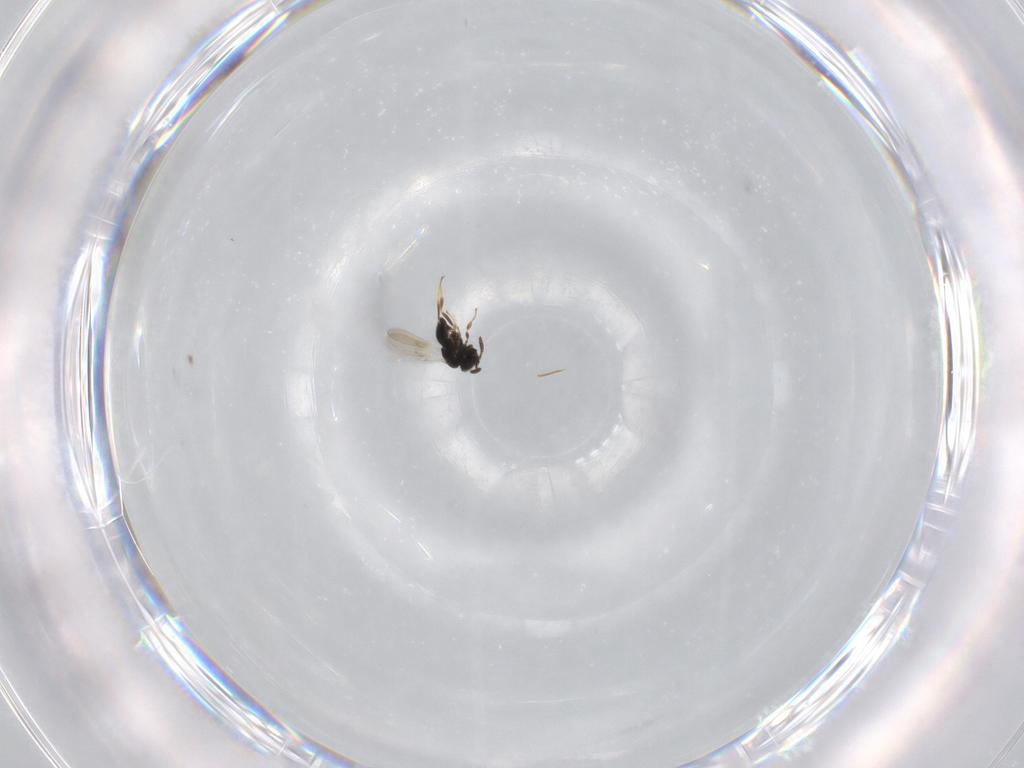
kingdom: Animalia
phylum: Arthropoda
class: Insecta
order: Hymenoptera
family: Scelionidae
